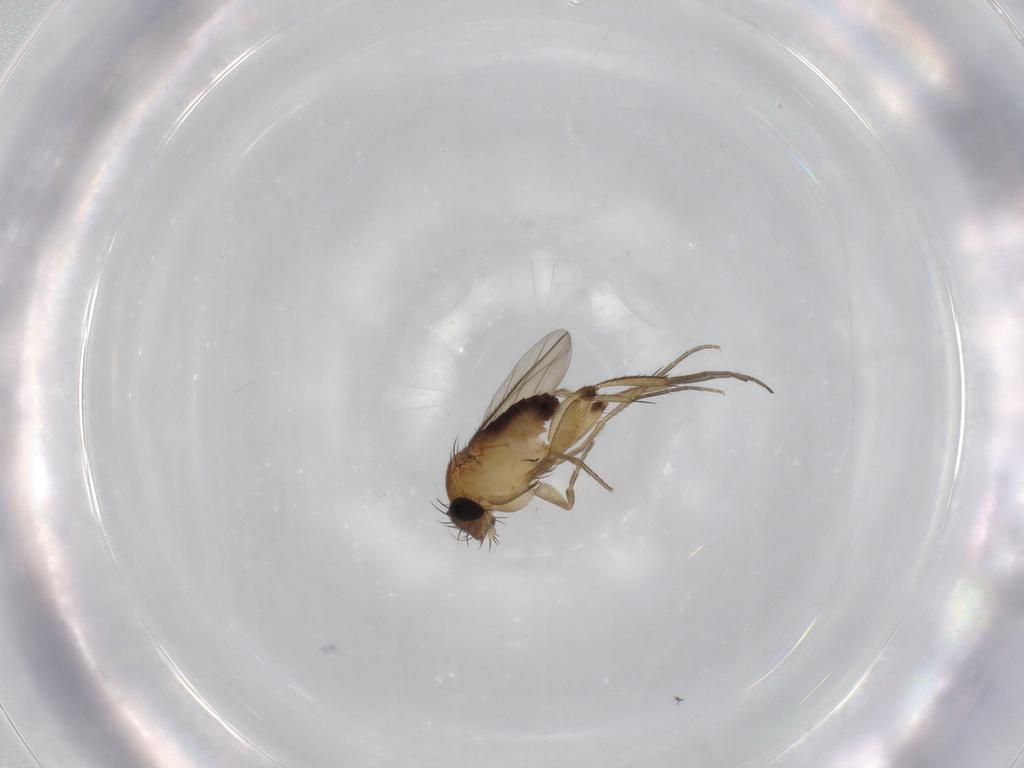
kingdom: Animalia
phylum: Arthropoda
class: Insecta
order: Diptera
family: Phoridae
